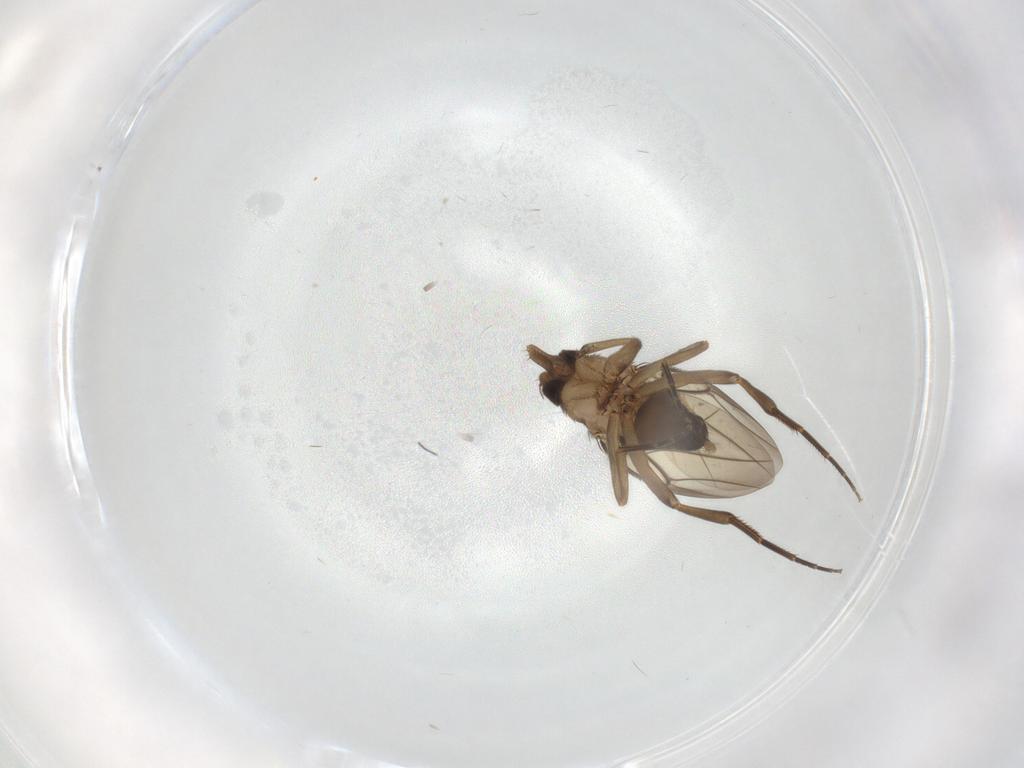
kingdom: Animalia
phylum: Arthropoda
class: Insecta
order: Diptera
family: Phoridae
